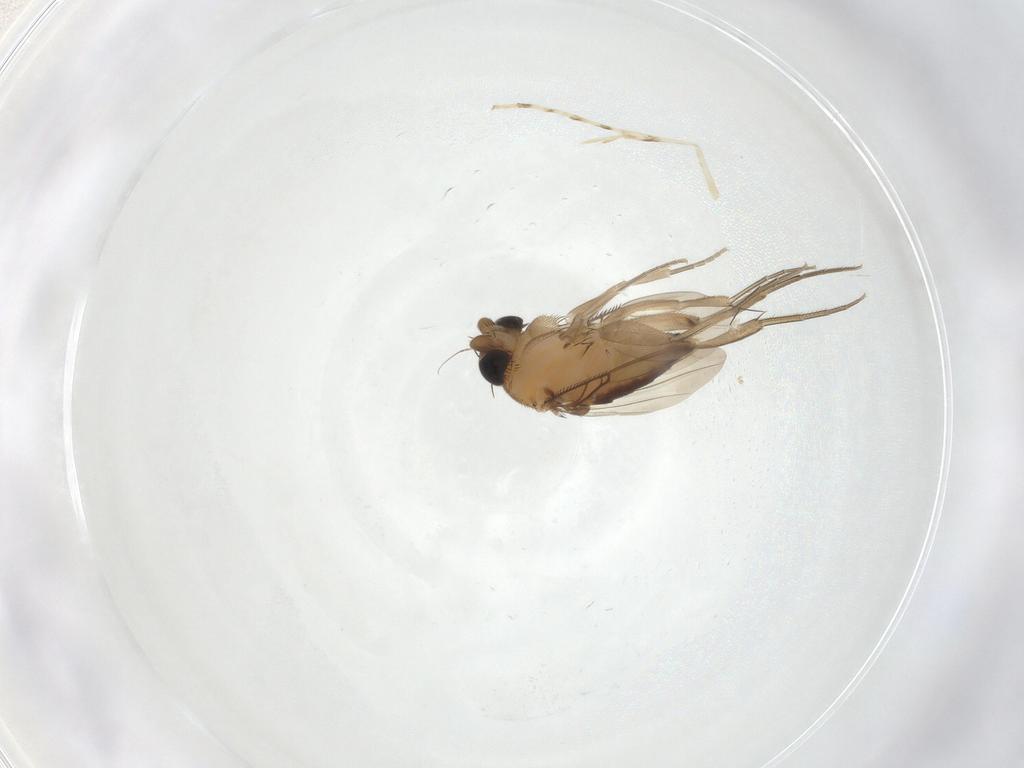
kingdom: Animalia
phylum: Arthropoda
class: Insecta
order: Diptera
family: Phoridae
